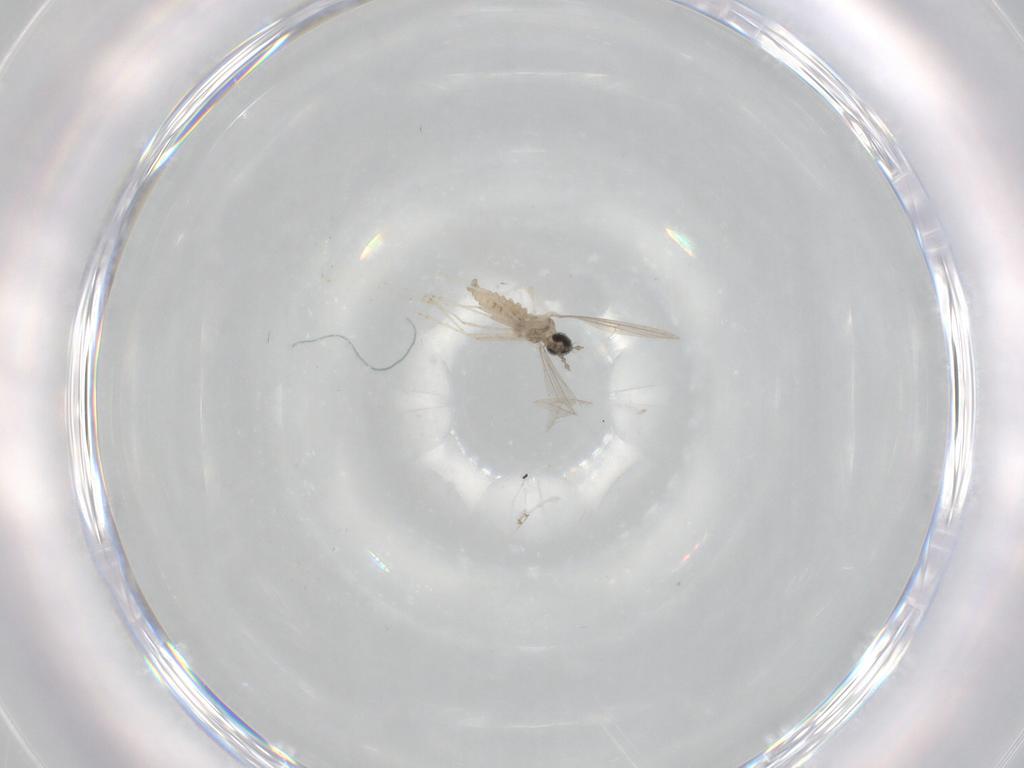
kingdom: Animalia
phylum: Arthropoda
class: Insecta
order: Diptera
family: Cecidomyiidae
